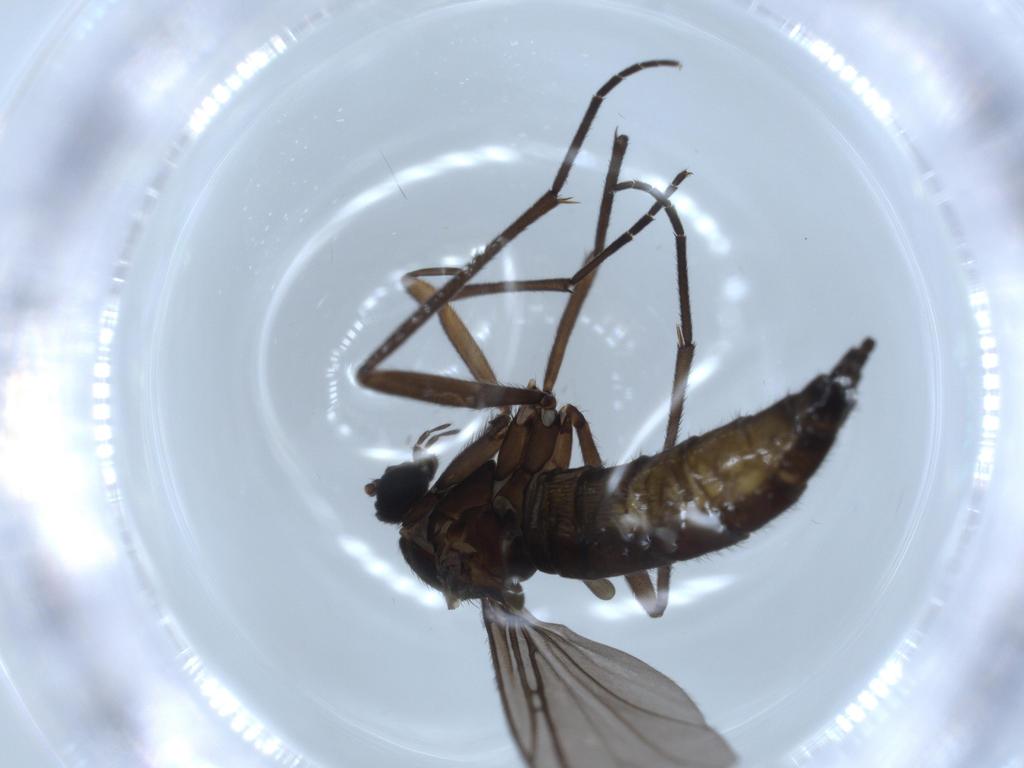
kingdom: Animalia
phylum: Arthropoda
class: Insecta
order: Diptera
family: Sciaridae
